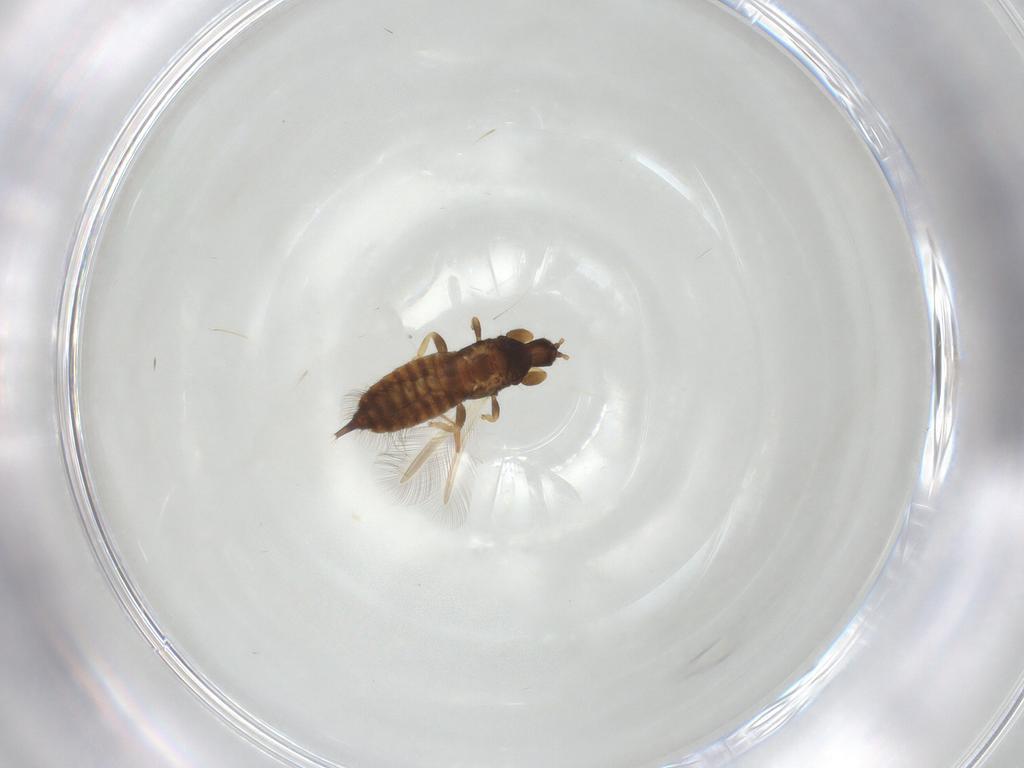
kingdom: Animalia
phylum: Arthropoda
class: Insecta
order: Thysanoptera
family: Phlaeothripidae
